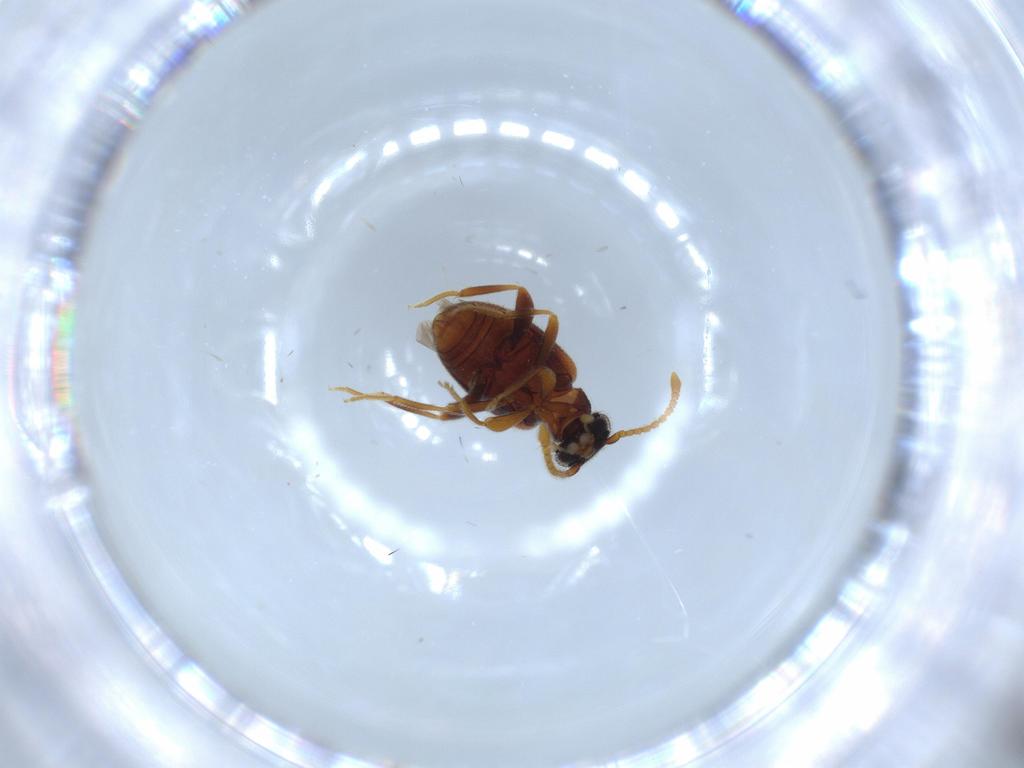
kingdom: Animalia
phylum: Arthropoda
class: Insecta
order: Coleoptera
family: Aderidae
